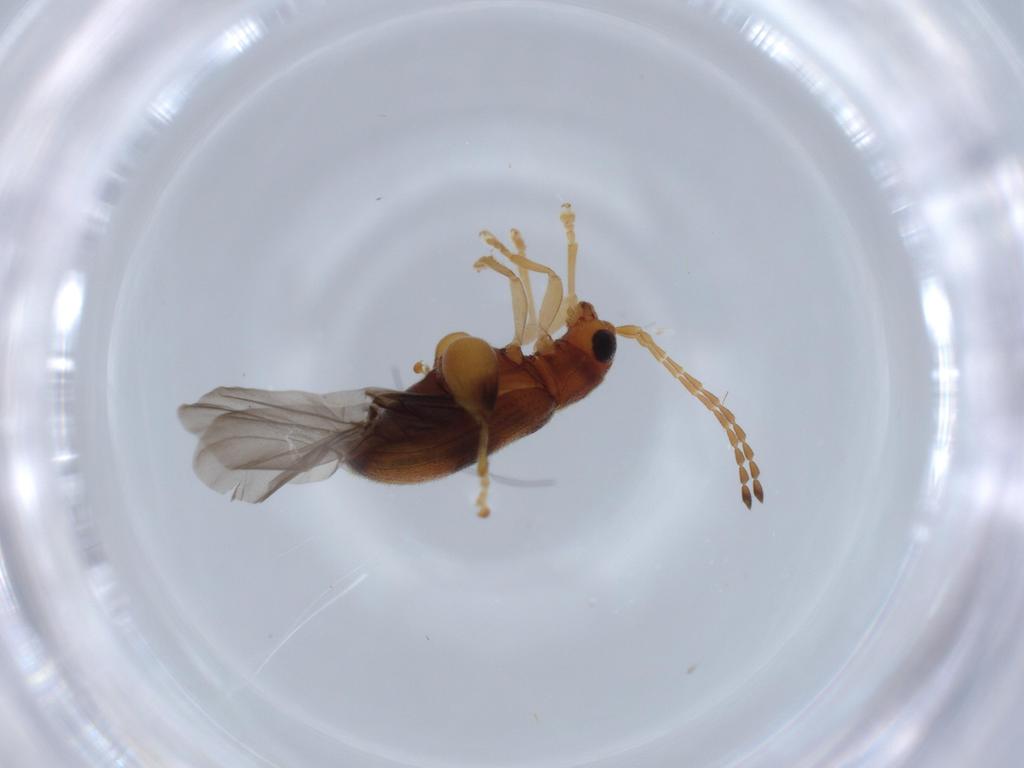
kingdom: Animalia
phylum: Arthropoda
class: Insecta
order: Coleoptera
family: Chrysomelidae
